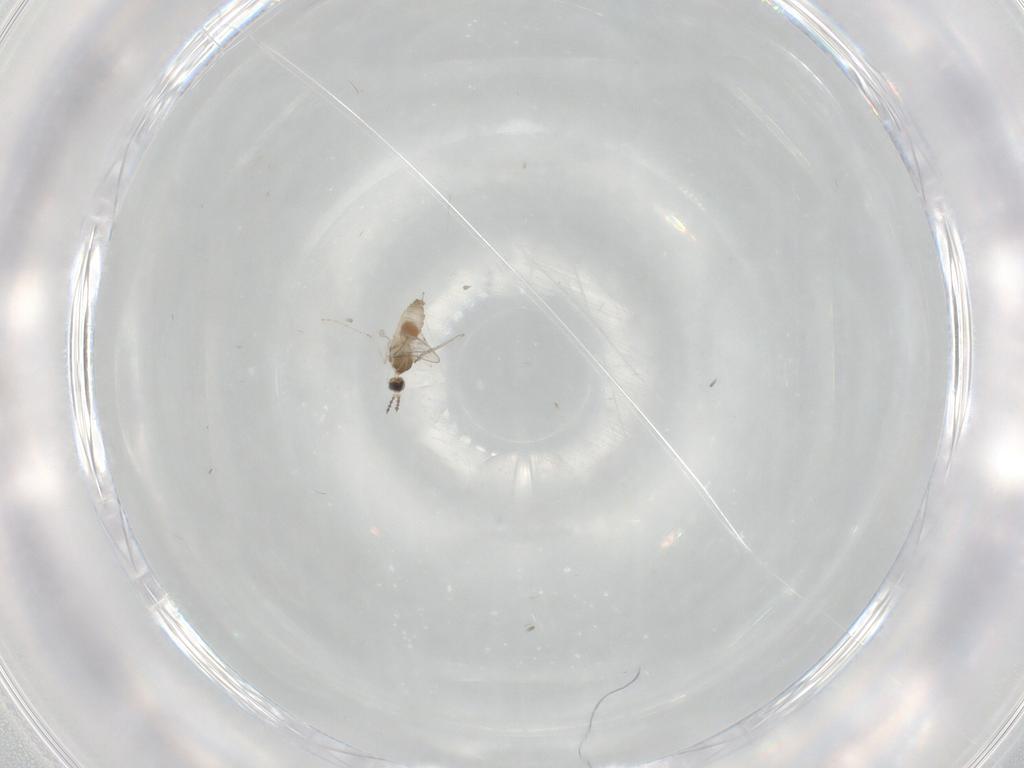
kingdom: Animalia
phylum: Arthropoda
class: Insecta
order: Diptera
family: Cecidomyiidae
